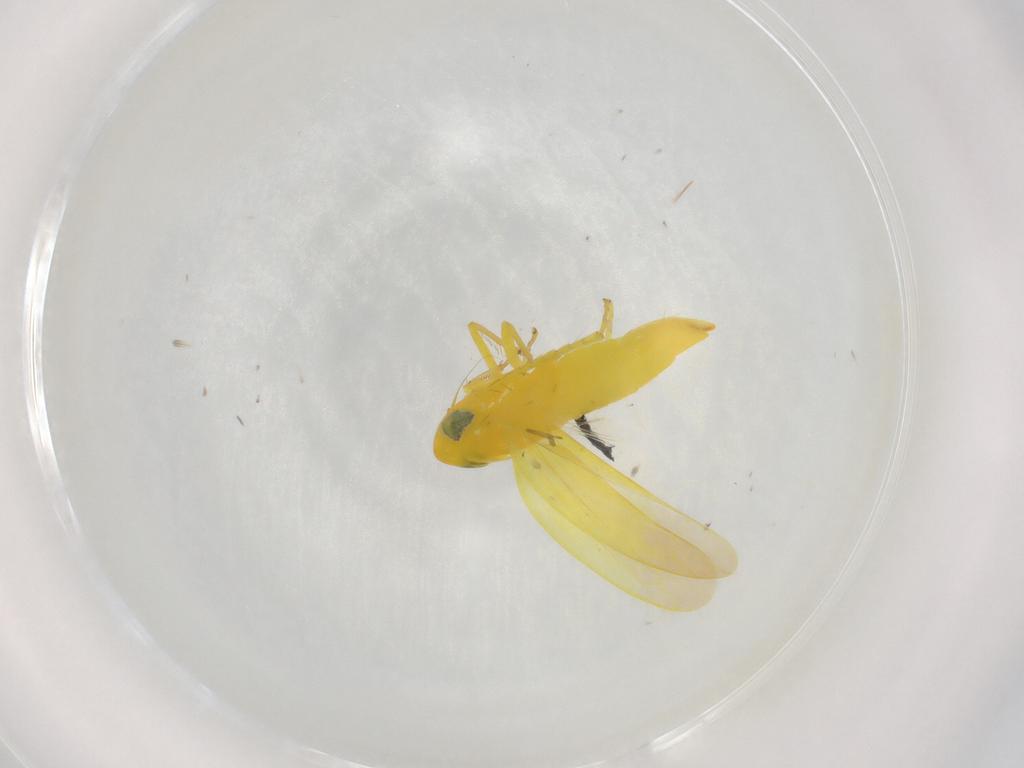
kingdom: Animalia
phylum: Arthropoda
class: Insecta
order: Hemiptera
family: Cicadellidae
